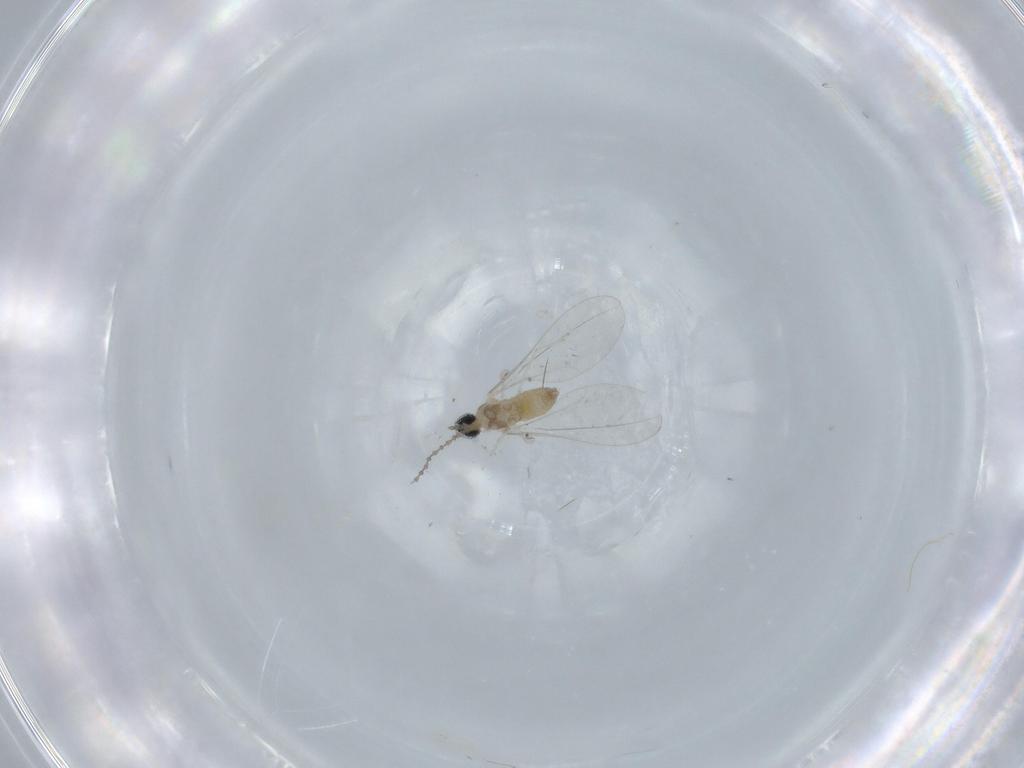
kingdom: Animalia
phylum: Arthropoda
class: Insecta
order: Diptera
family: Cecidomyiidae
